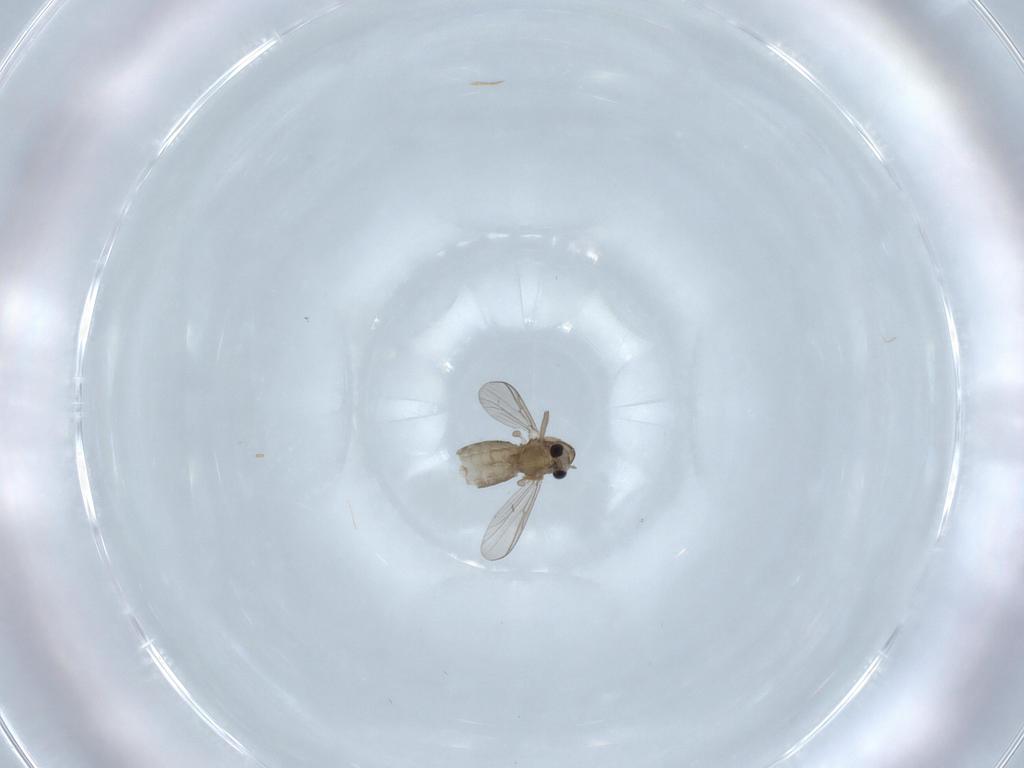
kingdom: Animalia
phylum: Arthropoda
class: Insecta
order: Diptera
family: Chironomidae
